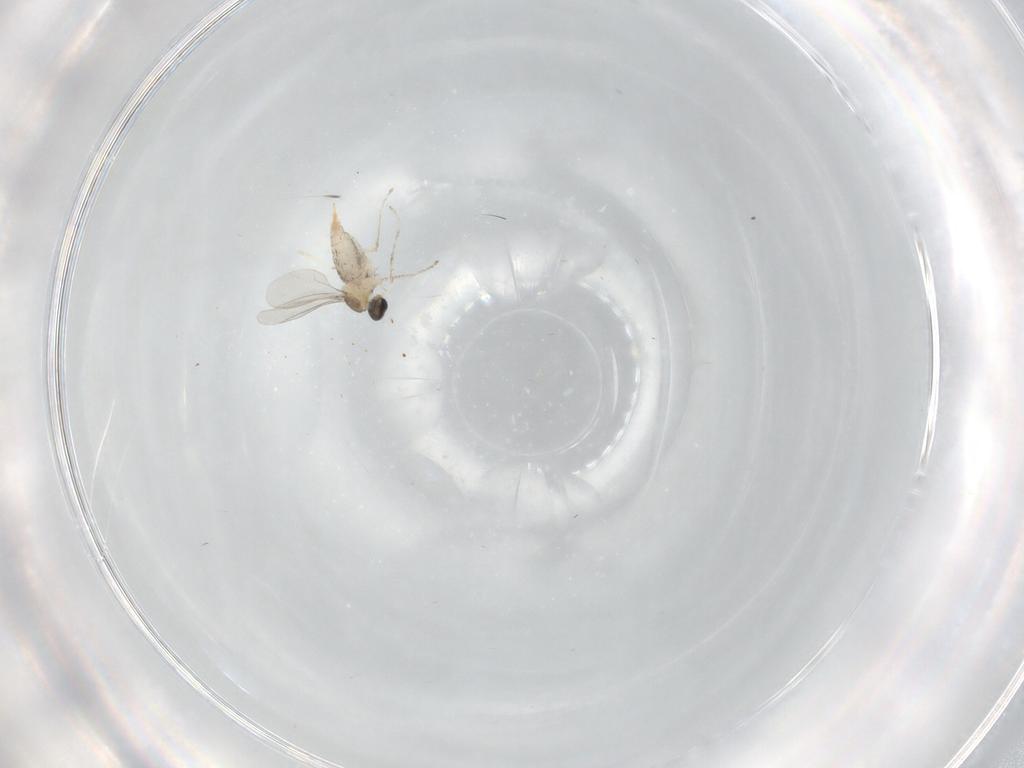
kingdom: Animalia
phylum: Arthropoda
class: Insecta
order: Diptera
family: Cecidomyiidae
